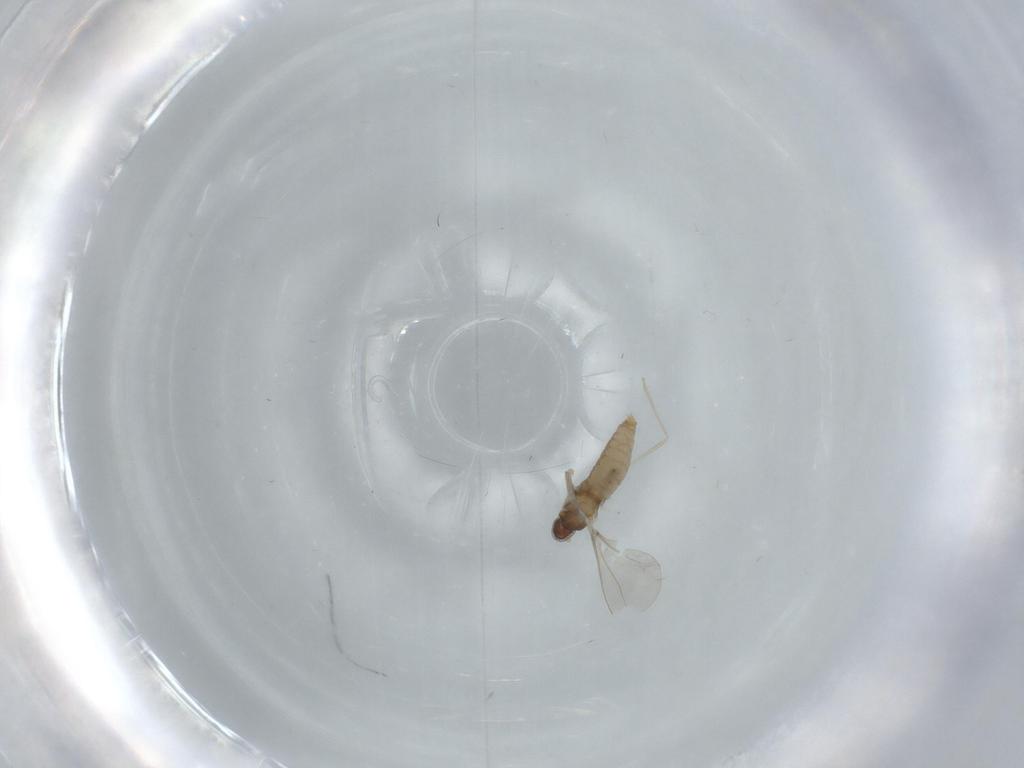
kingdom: Animalia
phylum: Arthropoda
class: Insecta
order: Diptera
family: Cecidomyiidae
